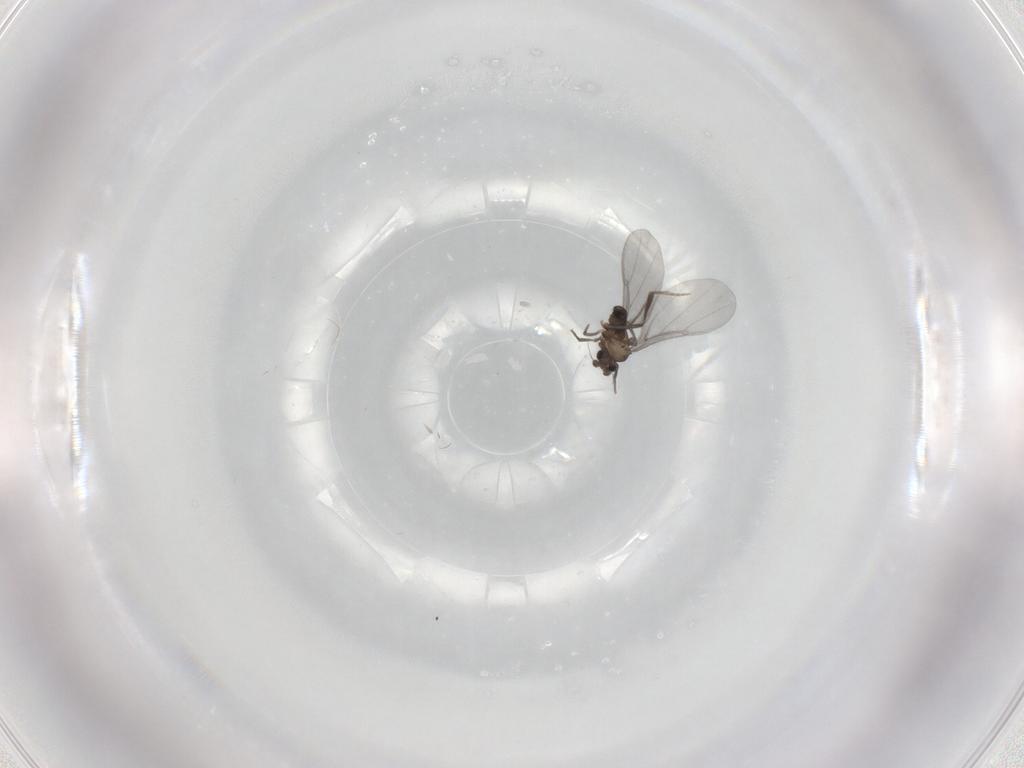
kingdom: Animalia
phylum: Arthropoda
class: Insecta
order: Diptera
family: Phoridae
